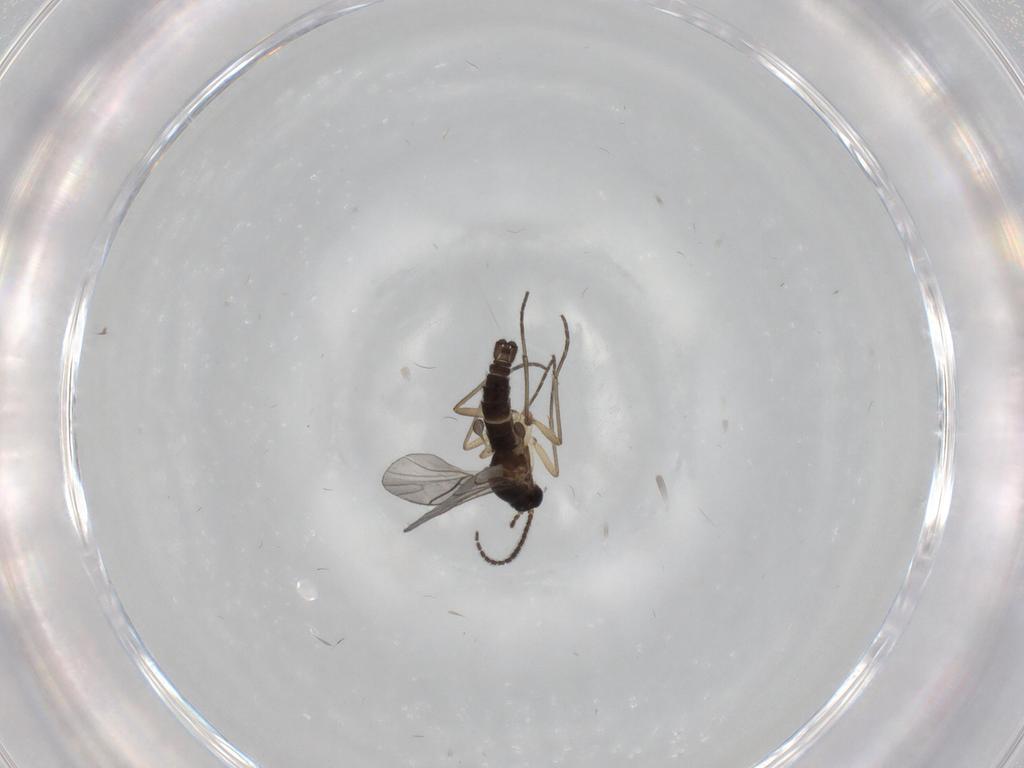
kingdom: Animalia
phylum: Arthropoda
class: Insecta
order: Diptera
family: Sciaridae
